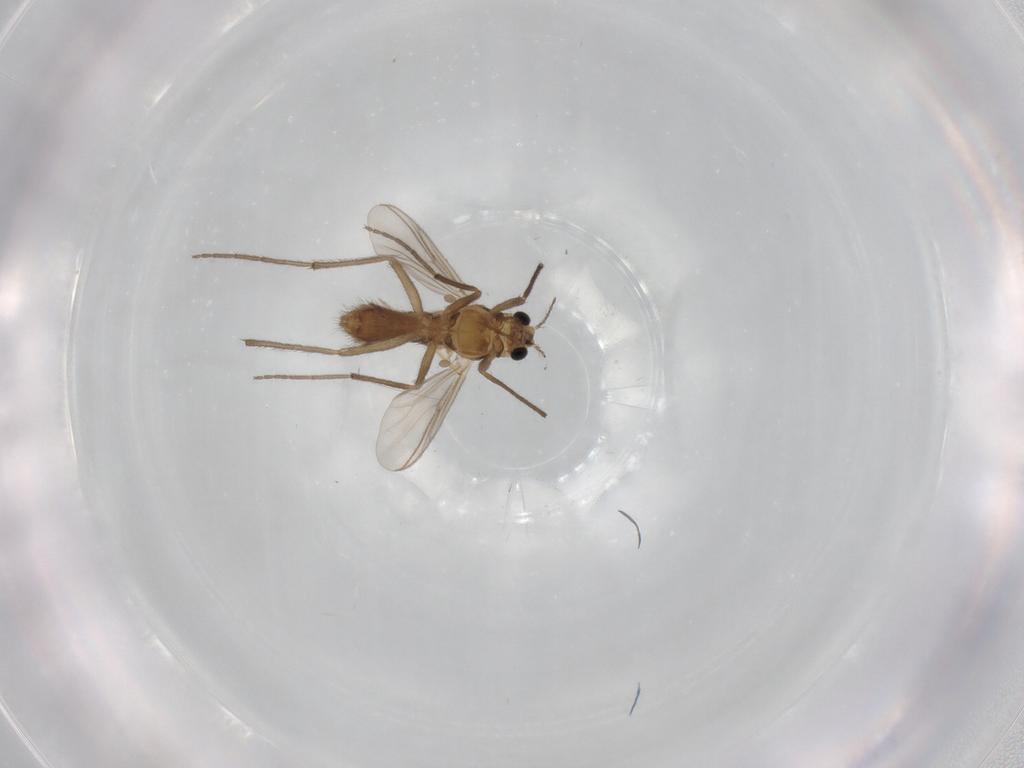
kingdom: Animalia
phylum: Arthropoda
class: Insecta
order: Diptera
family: Chironomidae
